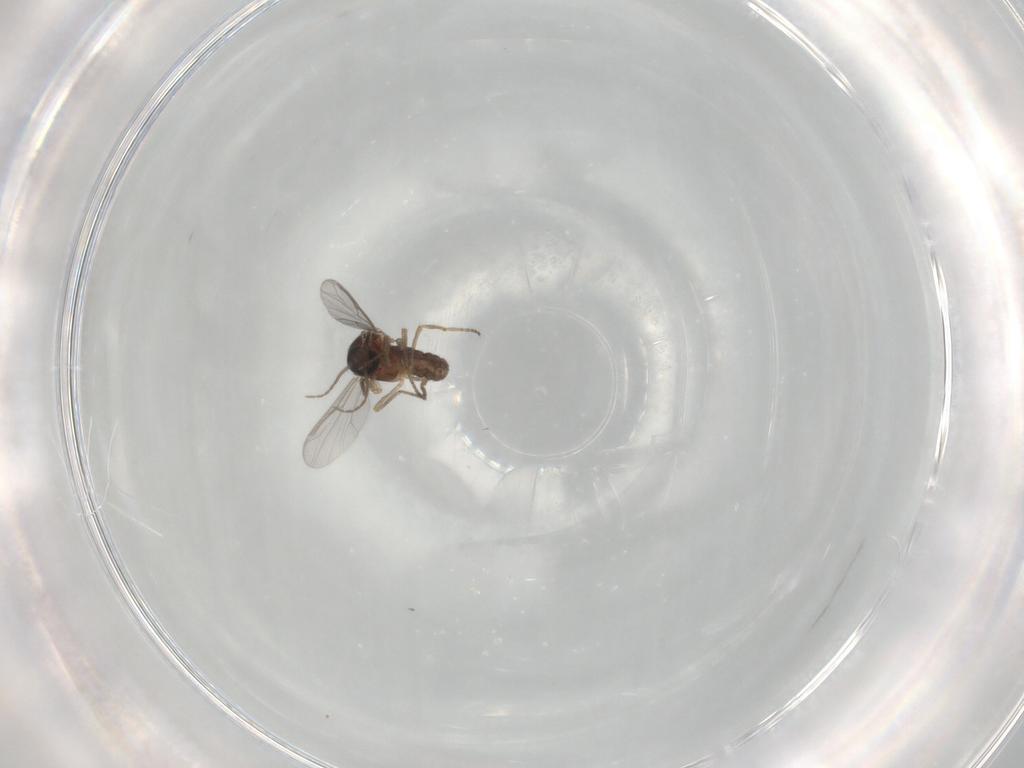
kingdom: Animalia
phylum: Arthropoda
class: Insecta
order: Diptera
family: Ceratopogonidae
